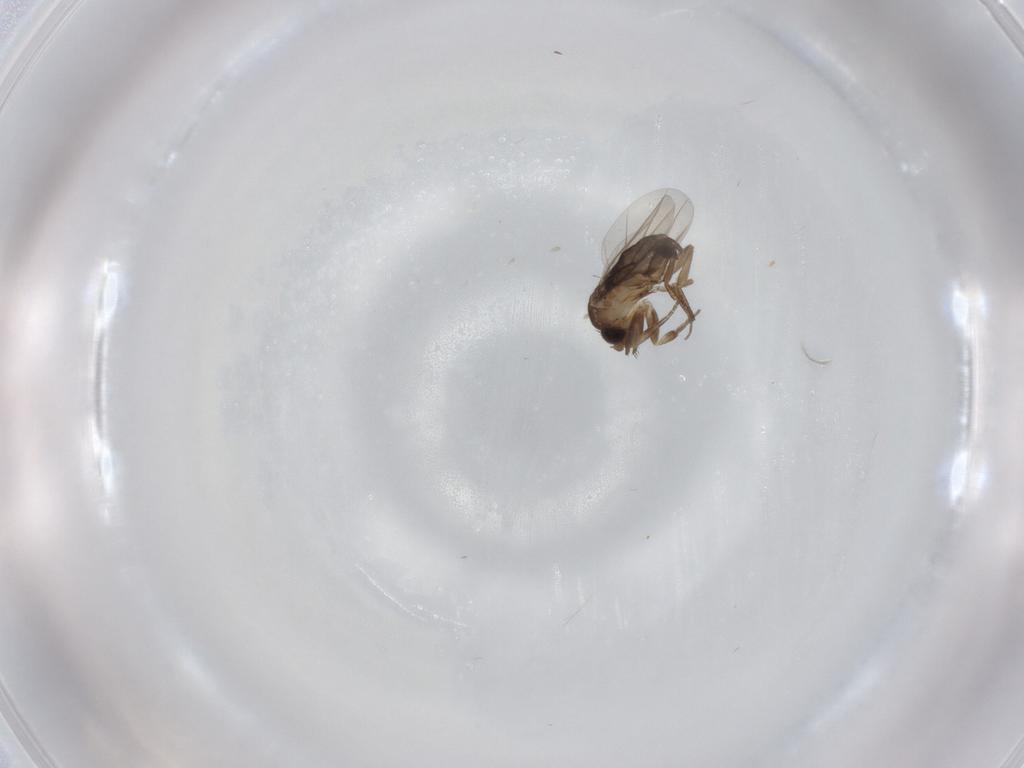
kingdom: Animalia
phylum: Arthropoda
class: Insecta
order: Diptera
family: Phoridae
